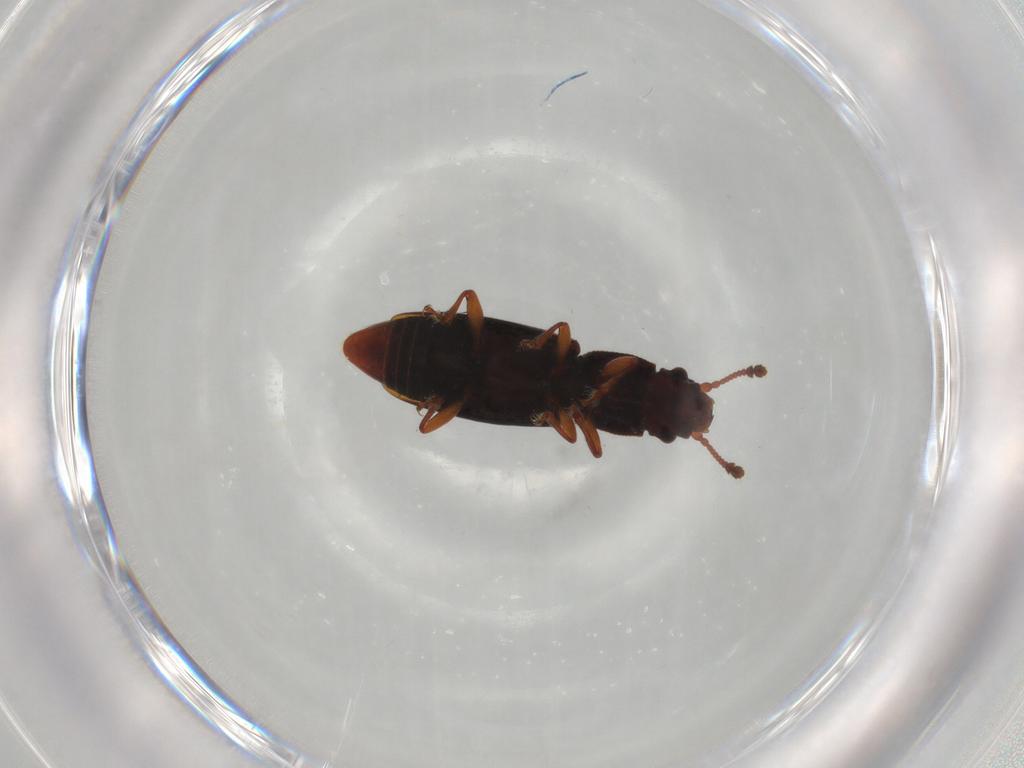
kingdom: Animalia
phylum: Arthropoda
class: Insecta
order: Coleoptera
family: Monotomidae
